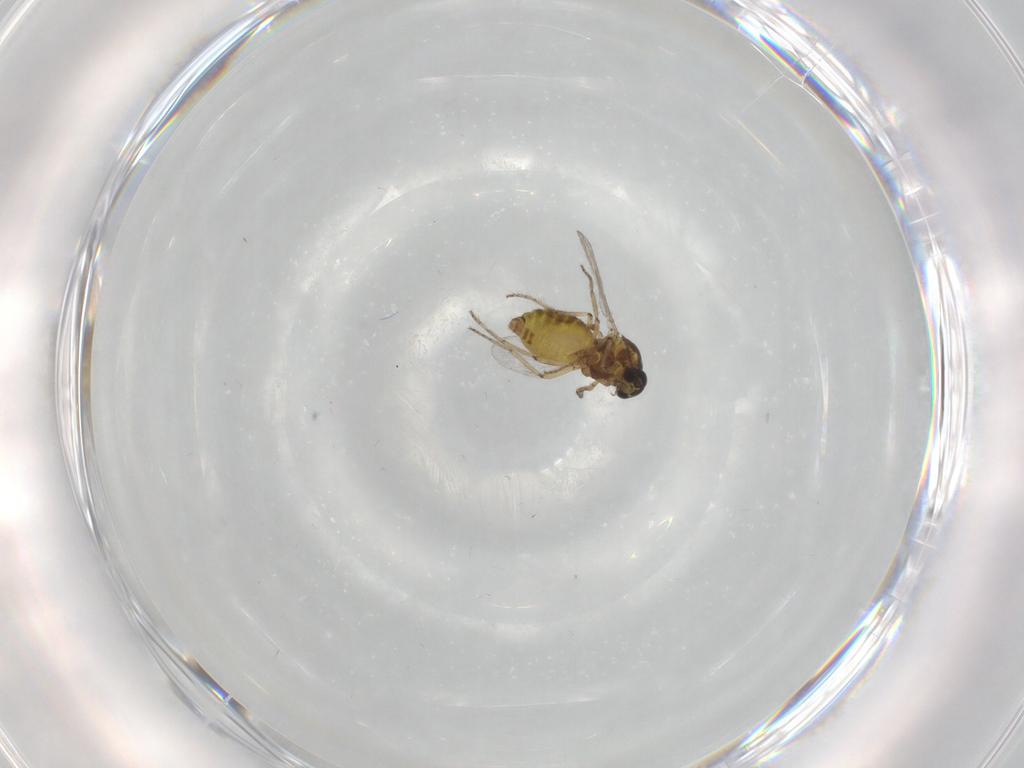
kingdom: Animalia
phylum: Arthropoda
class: Insecta
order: Diptera
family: Ceratopogonidae
